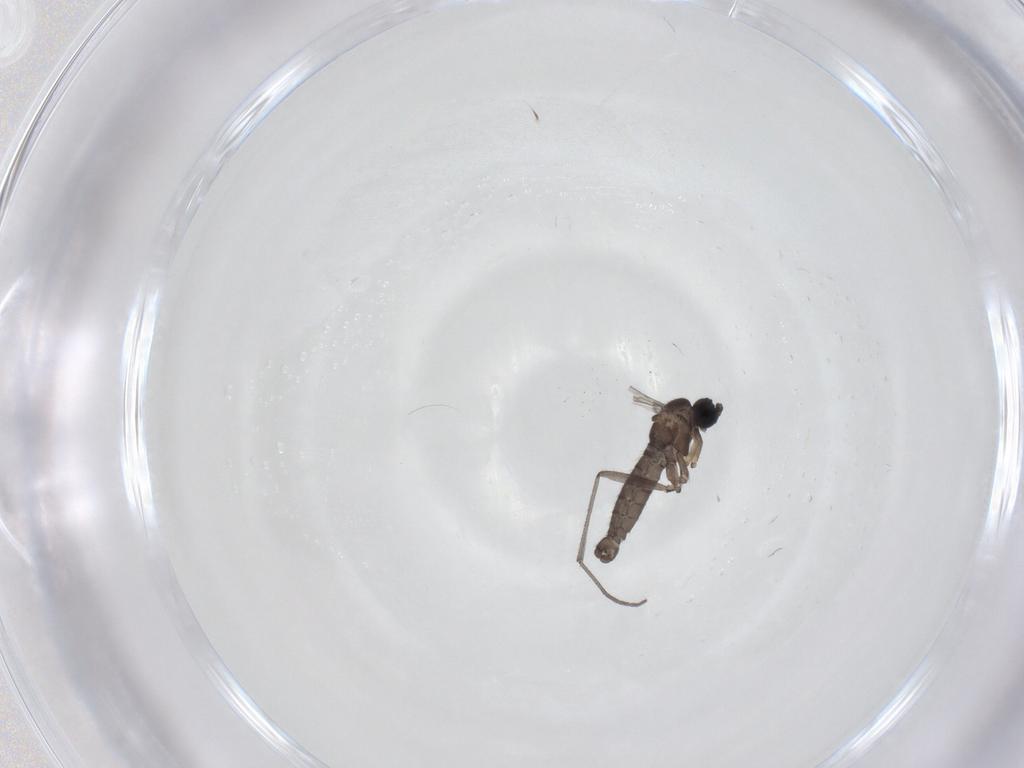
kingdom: Animalia
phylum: Arthropoda
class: Insecta
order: Diptera
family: Sciaridae
